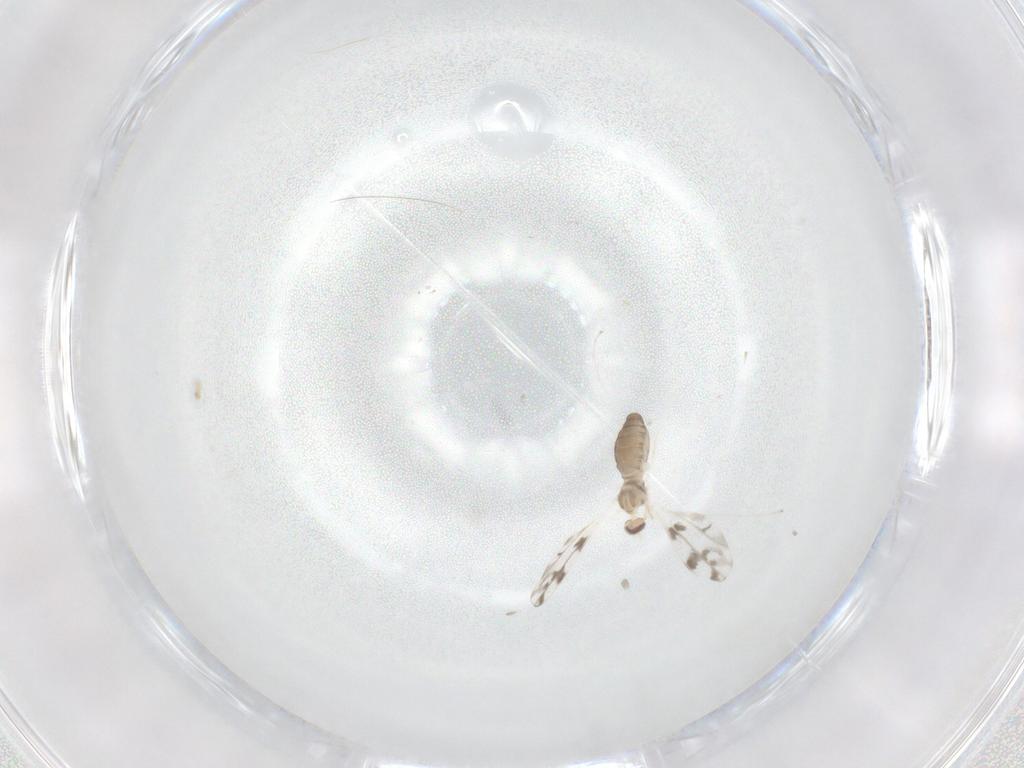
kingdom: Animalia
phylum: Arthropoda
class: Insecta
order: Diptera
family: Cecidomyiidae
